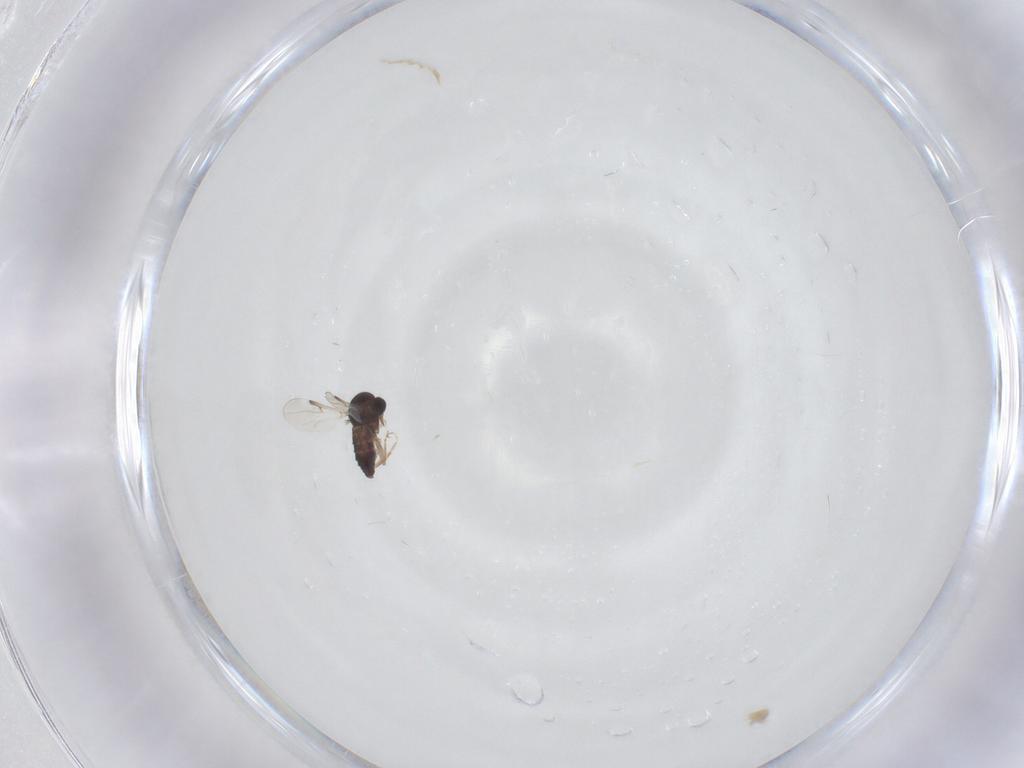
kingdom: Animalia
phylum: Arthropoda
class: Insecta
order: Diptera
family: Ceratopogonidae
